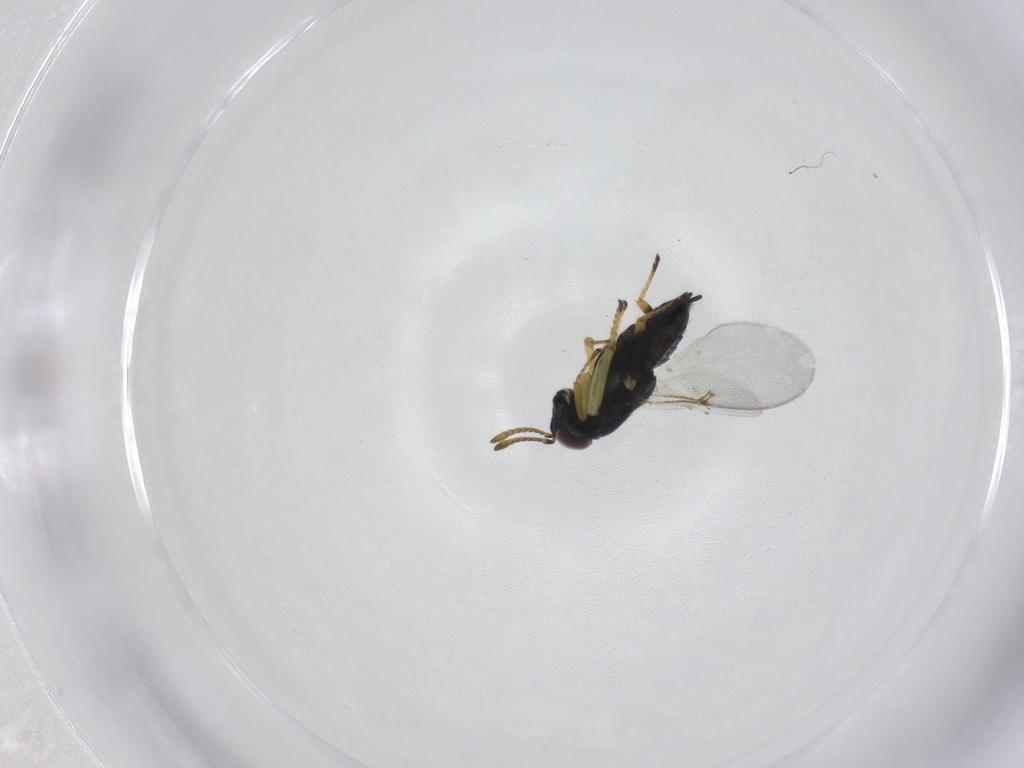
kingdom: Animalia
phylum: Arthropoda
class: Insecta
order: Hymenoptera
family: Encyrtidae
